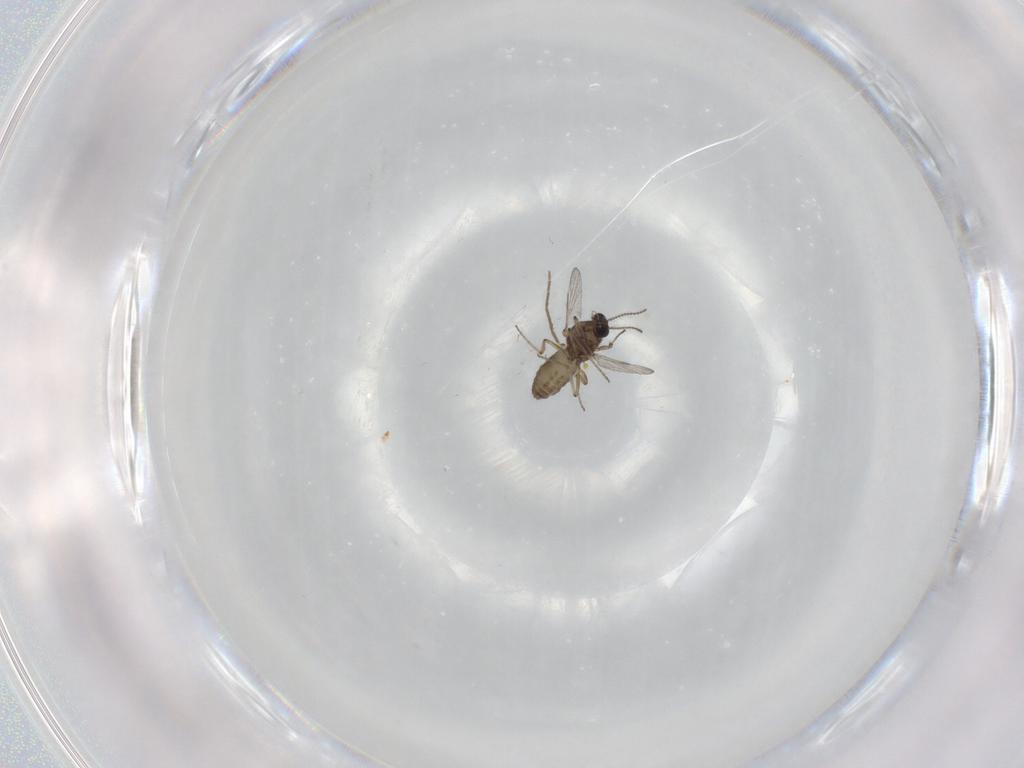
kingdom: Animalia
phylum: Arthropoda
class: Insecta
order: Diptera
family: Ceratopogonidae
